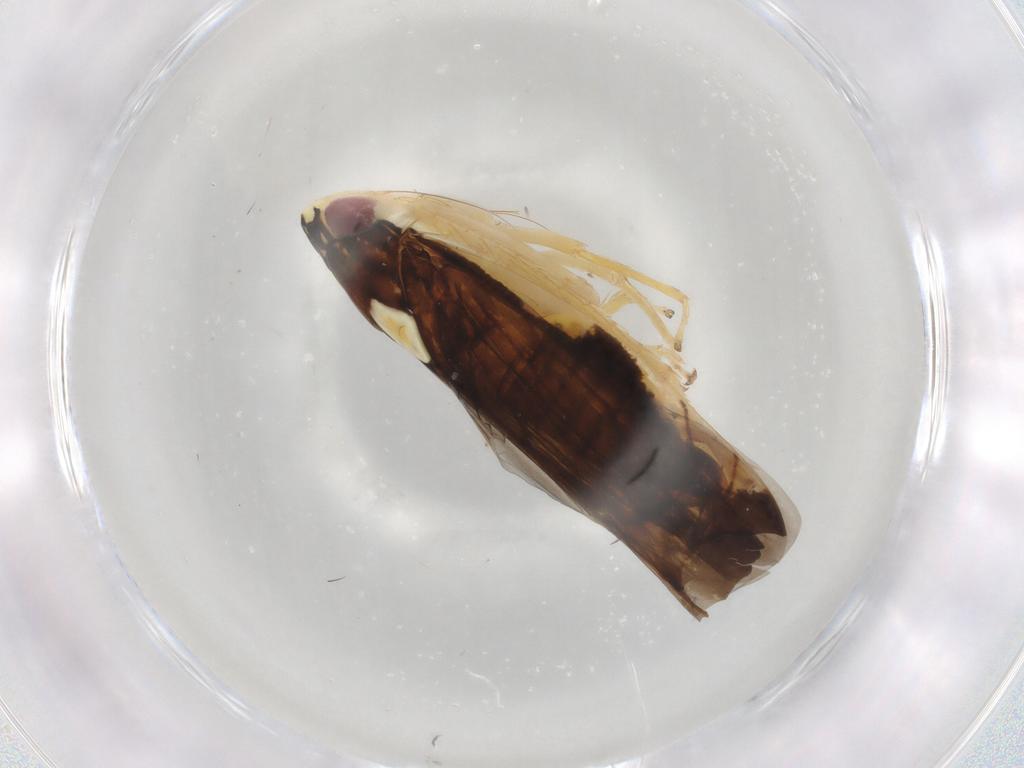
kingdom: Animalia
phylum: Arthropoda
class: Insecta
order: Hemiptera
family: Cicadellidae
